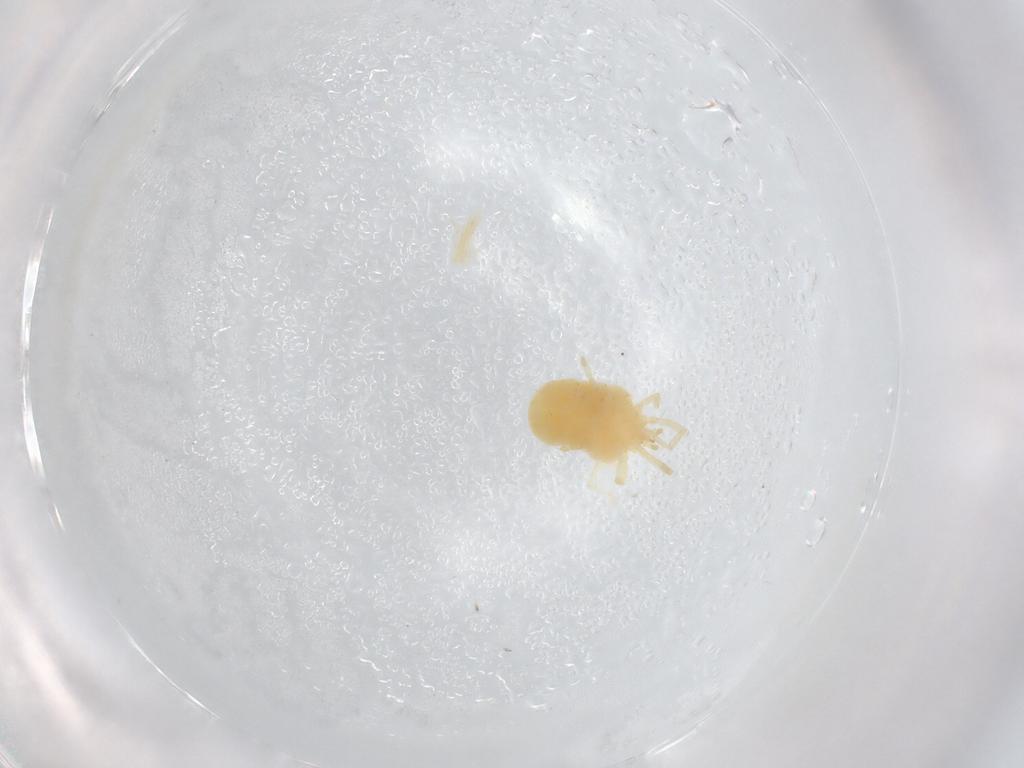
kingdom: Animalia
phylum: Arthropoda
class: Arachnida
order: Trombidiformes
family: Erythraeidae
